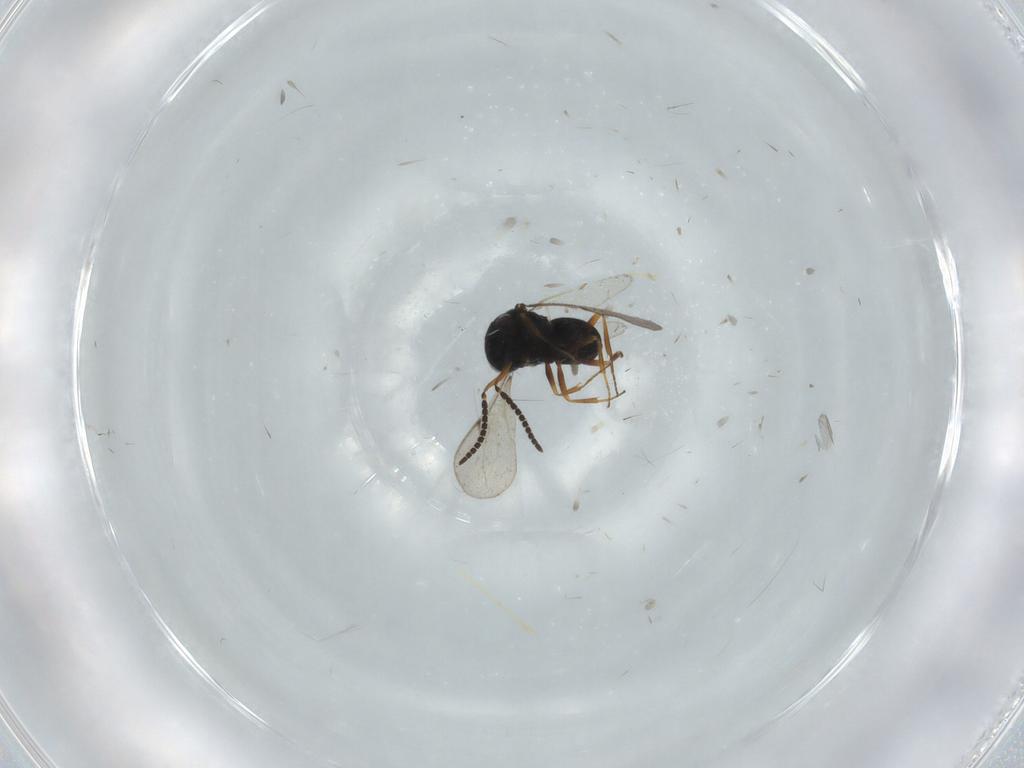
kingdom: Animalia
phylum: Arthropoda
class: Insecta
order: Hymenoptera
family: Scelionidae
